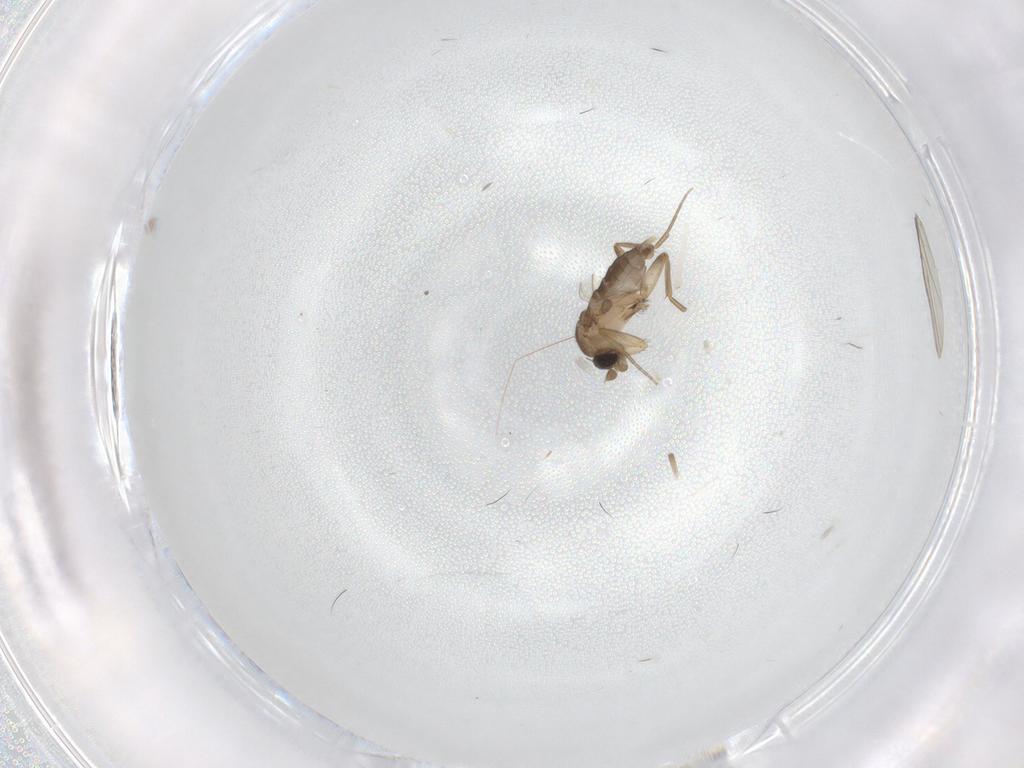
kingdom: Animalia
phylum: Arthropoda
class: Insecta
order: Diptera
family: Phoridae
